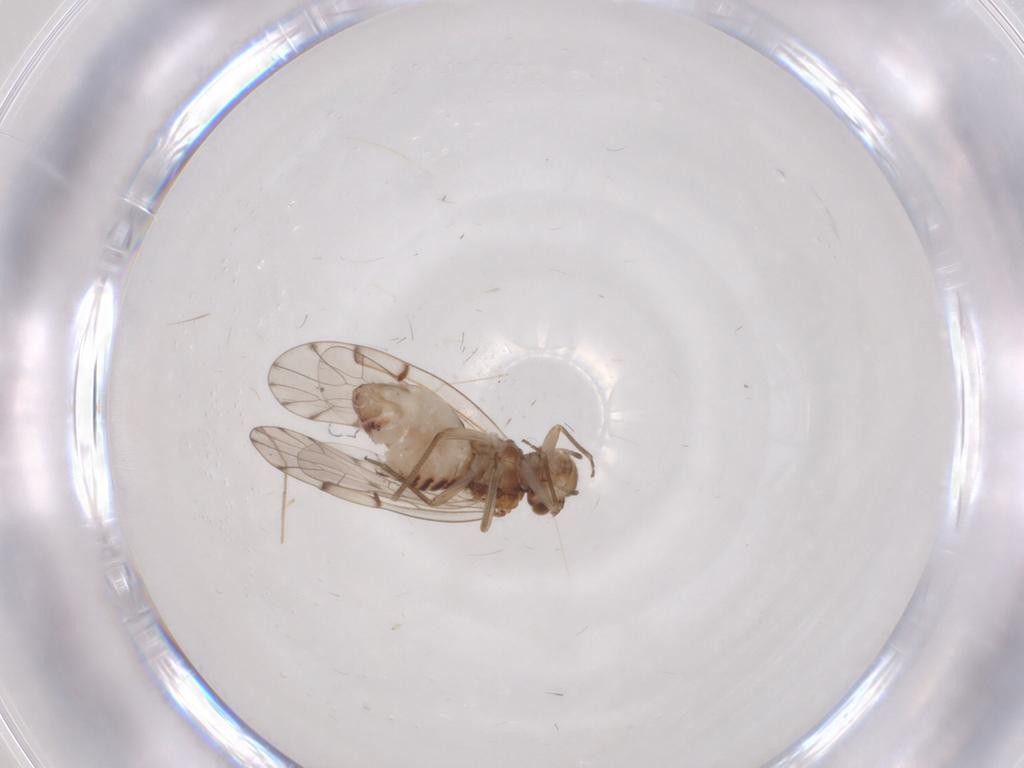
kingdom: Animalia
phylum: Arthropoda
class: Insecta
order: Diptera
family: Chironomidae
